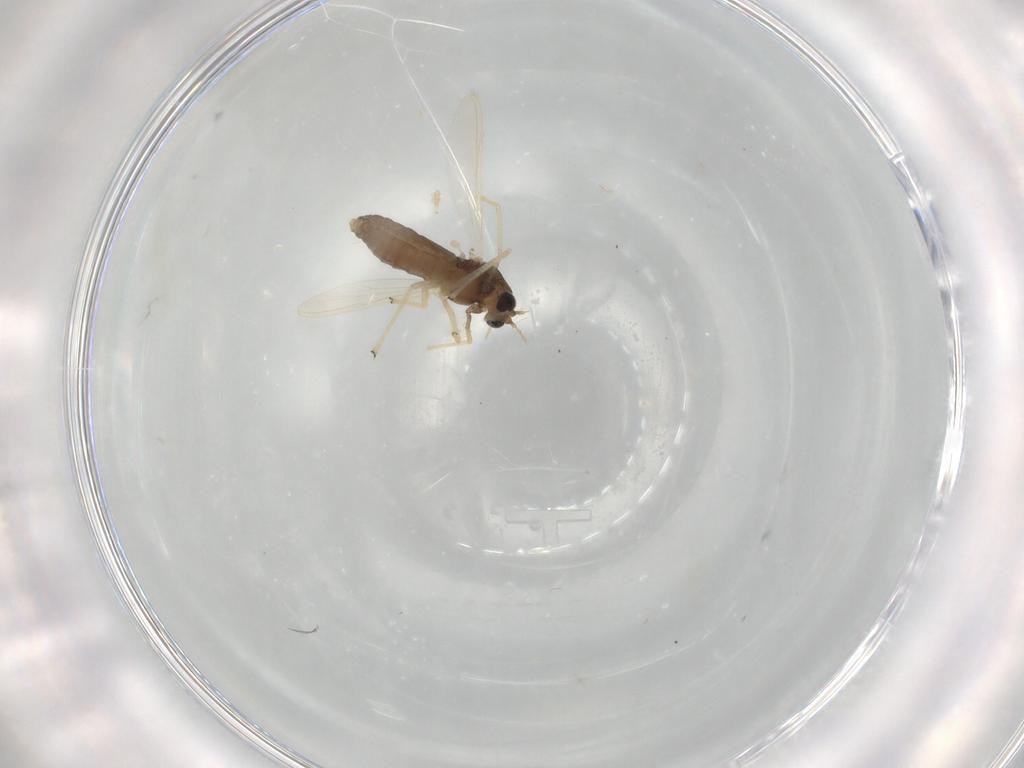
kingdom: Animalia
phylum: Arthropoda
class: Insecta
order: Diptera
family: Chironomidae
